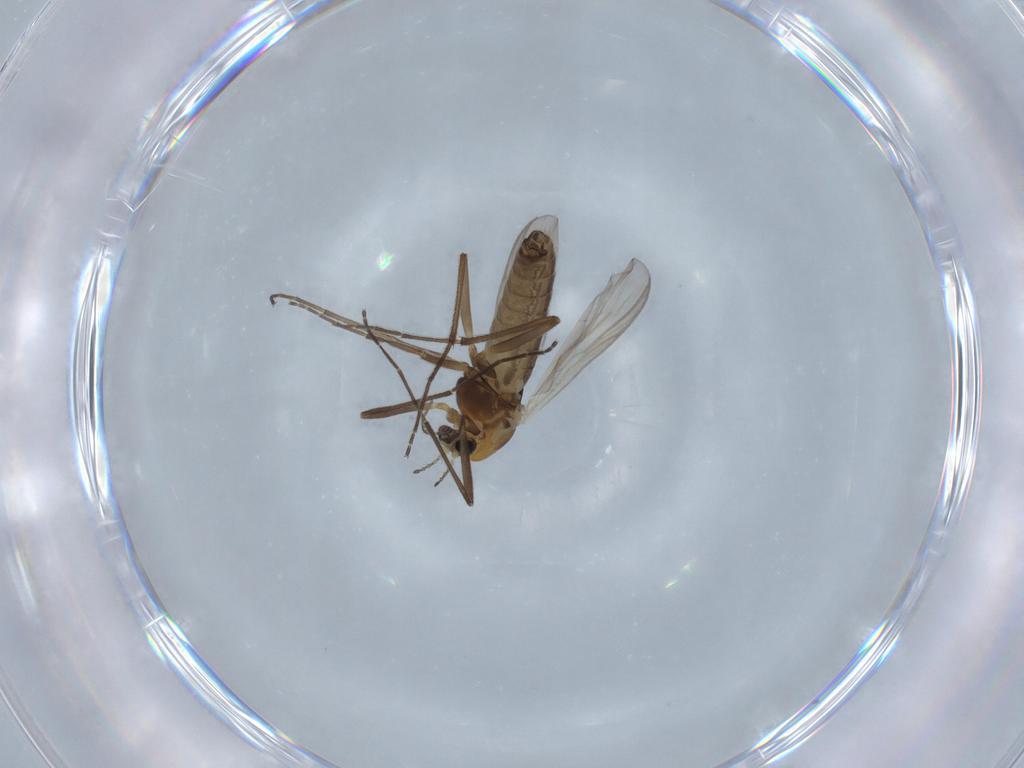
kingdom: Animalia
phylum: Arthropoda
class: Insecta
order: Diptera
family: Chironomidae
